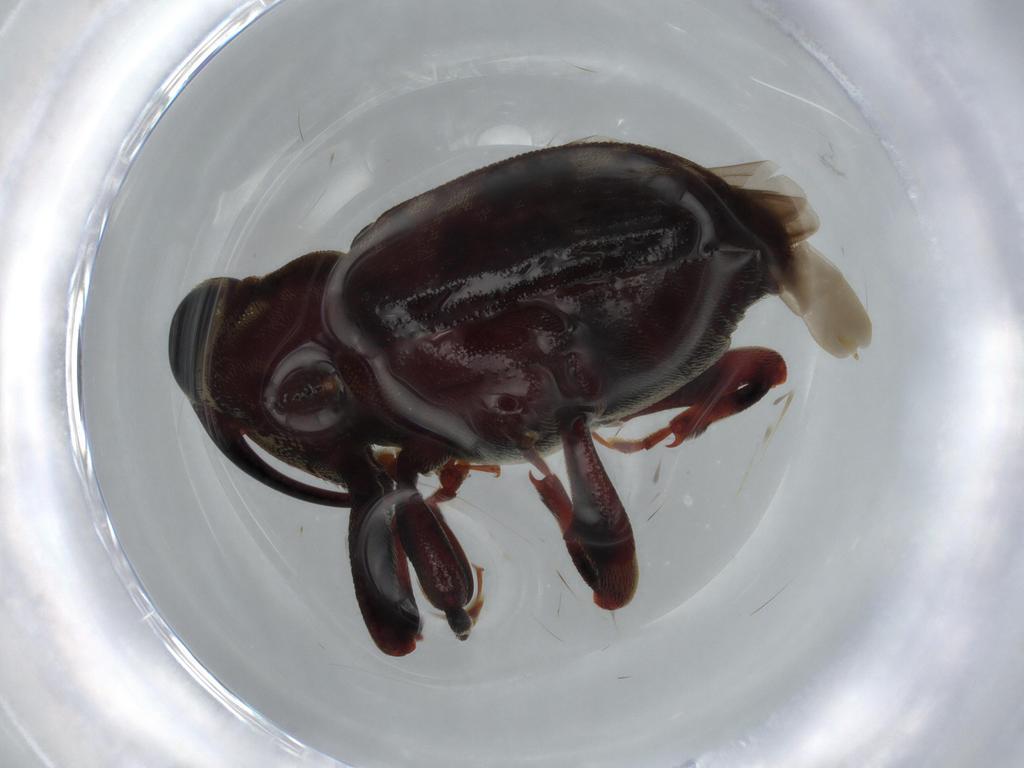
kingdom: Animalia
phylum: Arthropoda
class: Insecta
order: Coleoptera
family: Curculionidae
